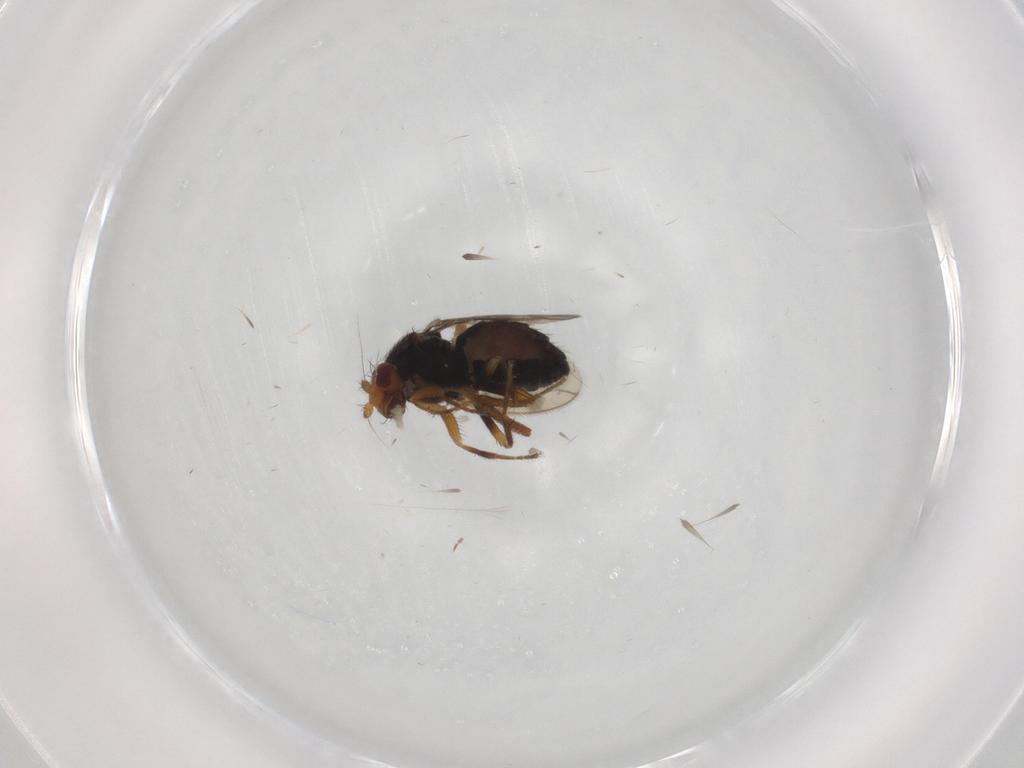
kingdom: Animalia
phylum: Arthropoda
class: Insecta
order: Diptera
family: Sphaeroceridae
